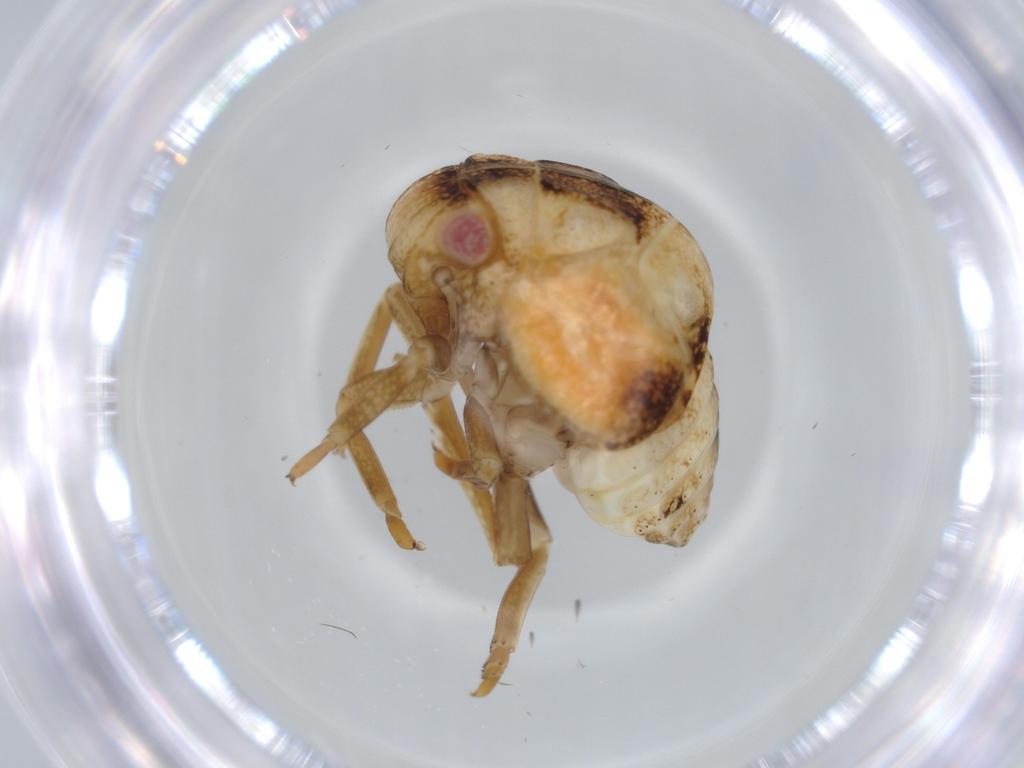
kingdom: Animalia
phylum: Arthropoda
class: Insecta
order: Hemiptera
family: Acanaloniidae
